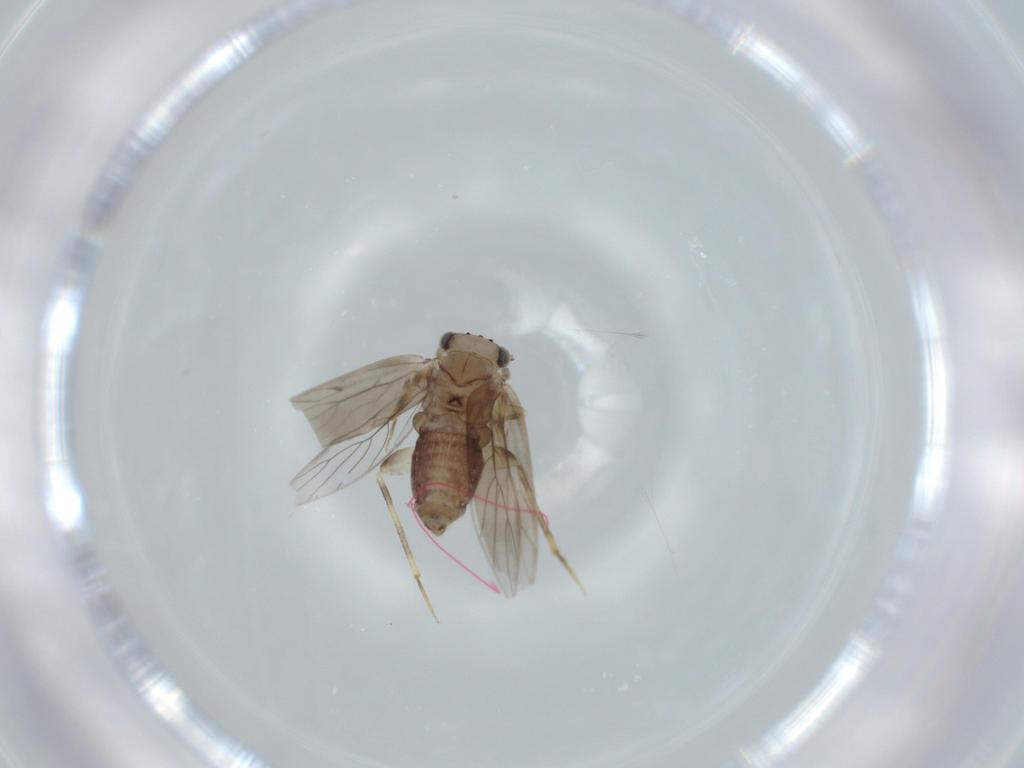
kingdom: Animalia
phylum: Arthropoda
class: Insecta
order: Psocodea
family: Lepidopsocidae
